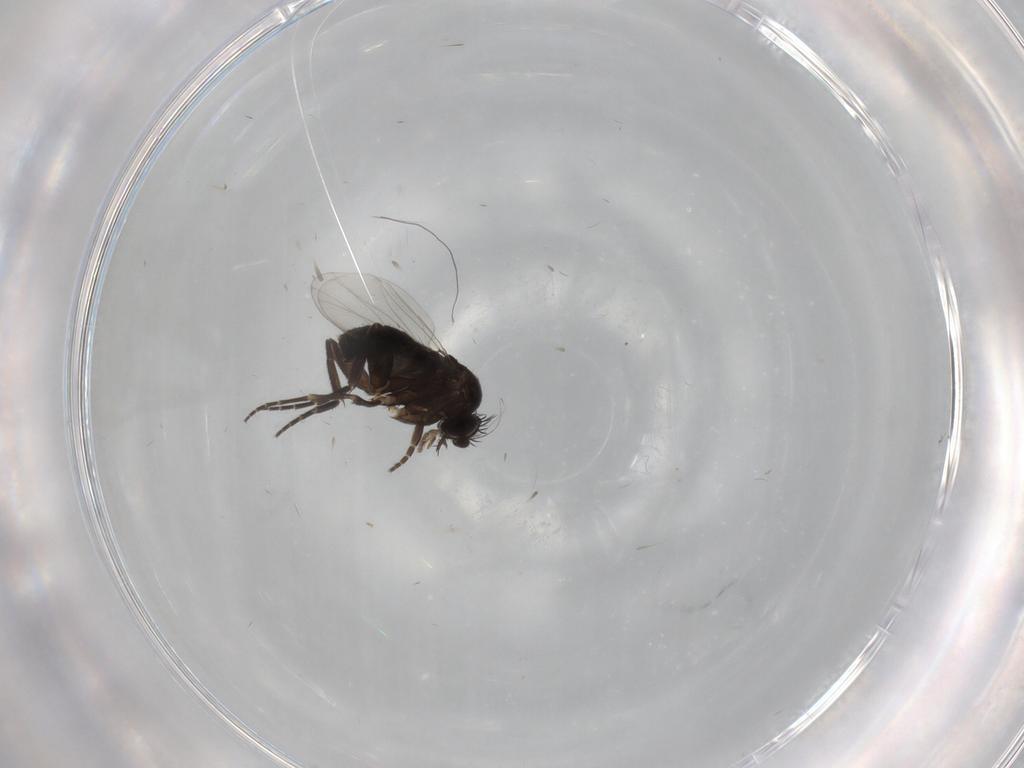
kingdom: Animalia
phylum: Arthropoda
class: Insecta
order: Diptera
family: Phoridae
